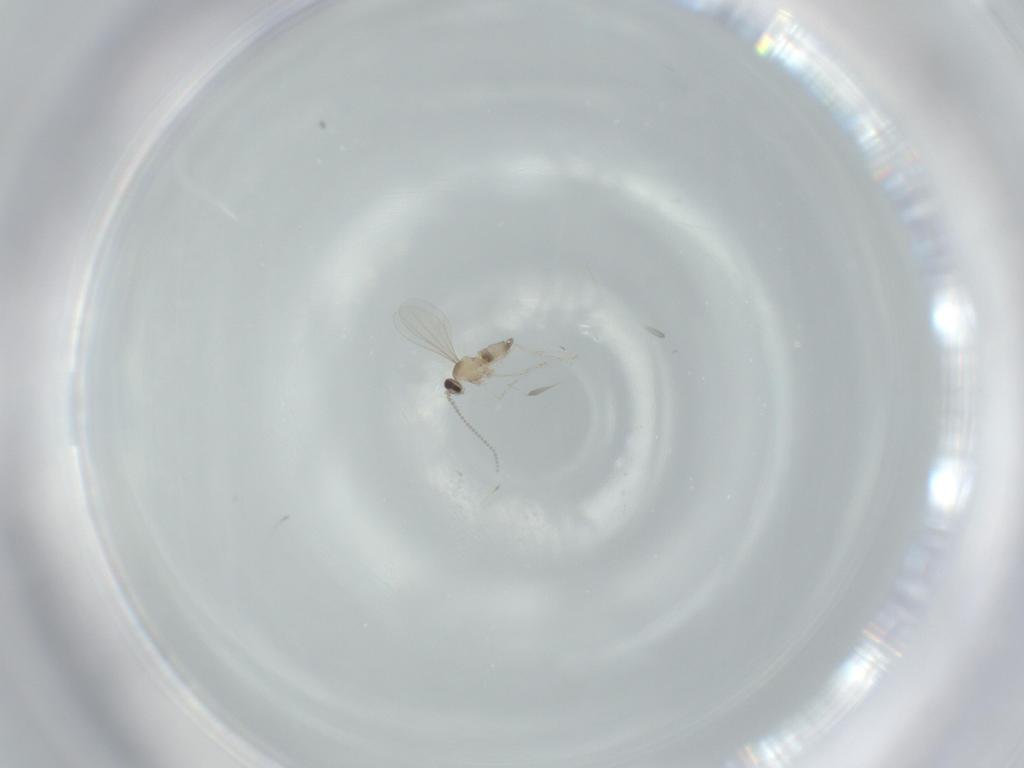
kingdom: Animalia
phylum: Arthropoda
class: Insecta
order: Diptera
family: Cecidomyiidae
